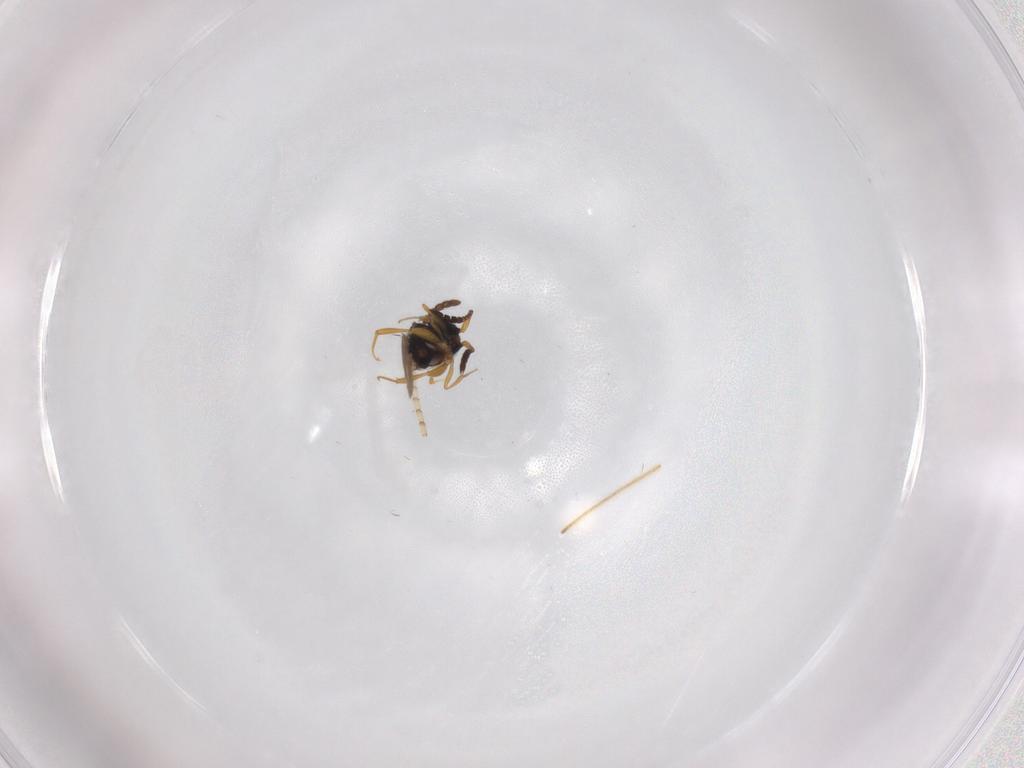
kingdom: Animalia
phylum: Arthropoda
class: Insecta
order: Hymenoptera
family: Ichneumonidae
